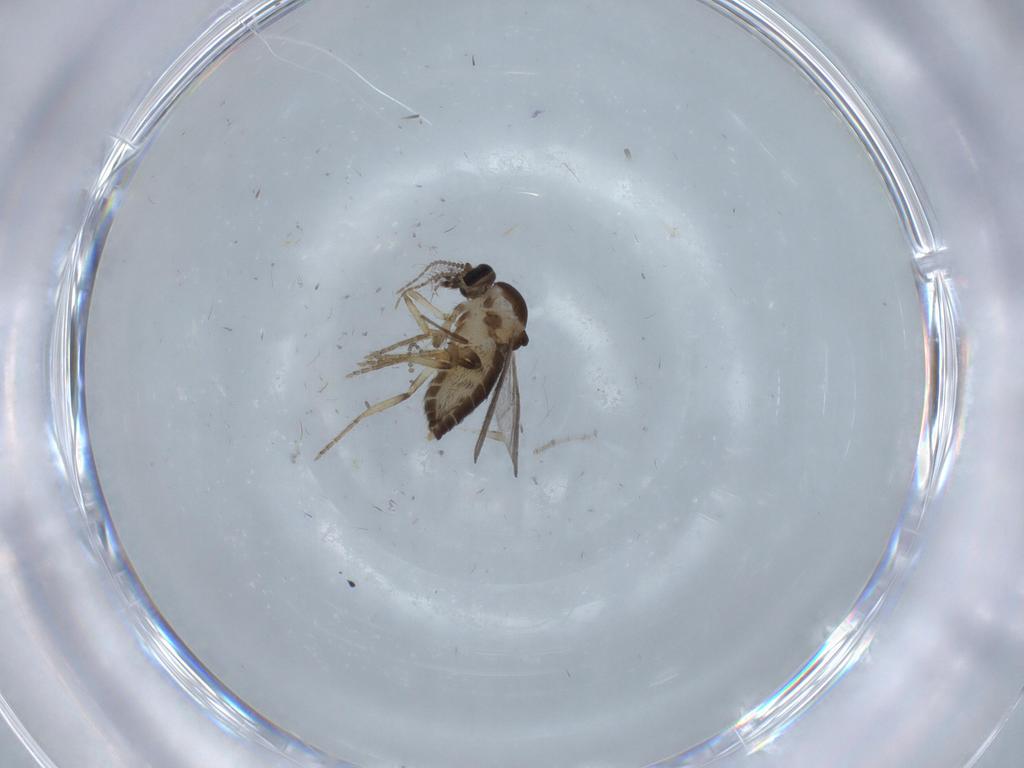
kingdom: Animalia
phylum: Arthropoda
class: Insecta
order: Diptera
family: Ceratopogonidae
